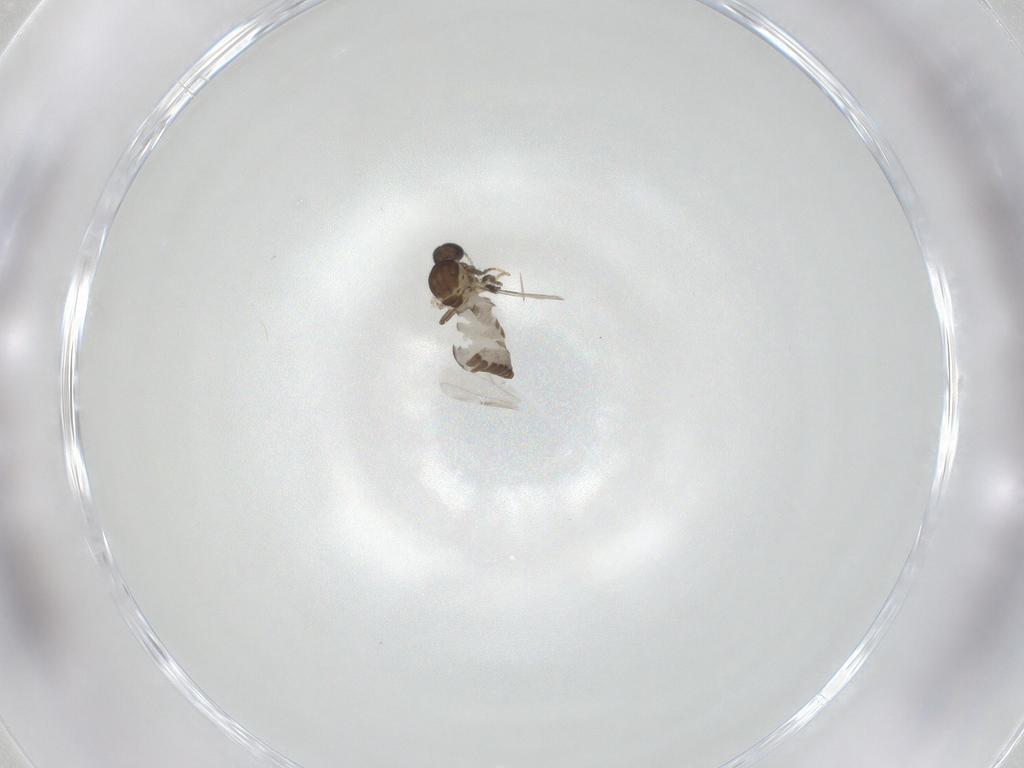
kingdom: Animalia
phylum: Arthropoda
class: Insecta
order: Diptera
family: Ceratopogonidae
